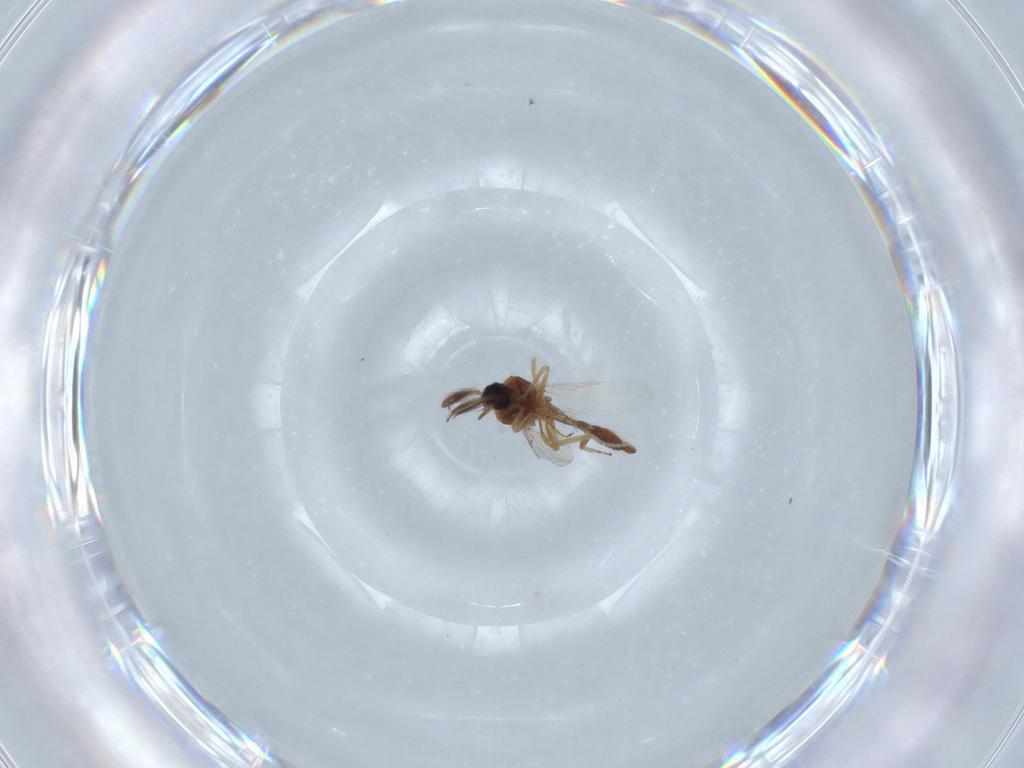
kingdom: Animalia
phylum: Arthropoda
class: Insecta
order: Diptera
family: Ceratopogonidae
